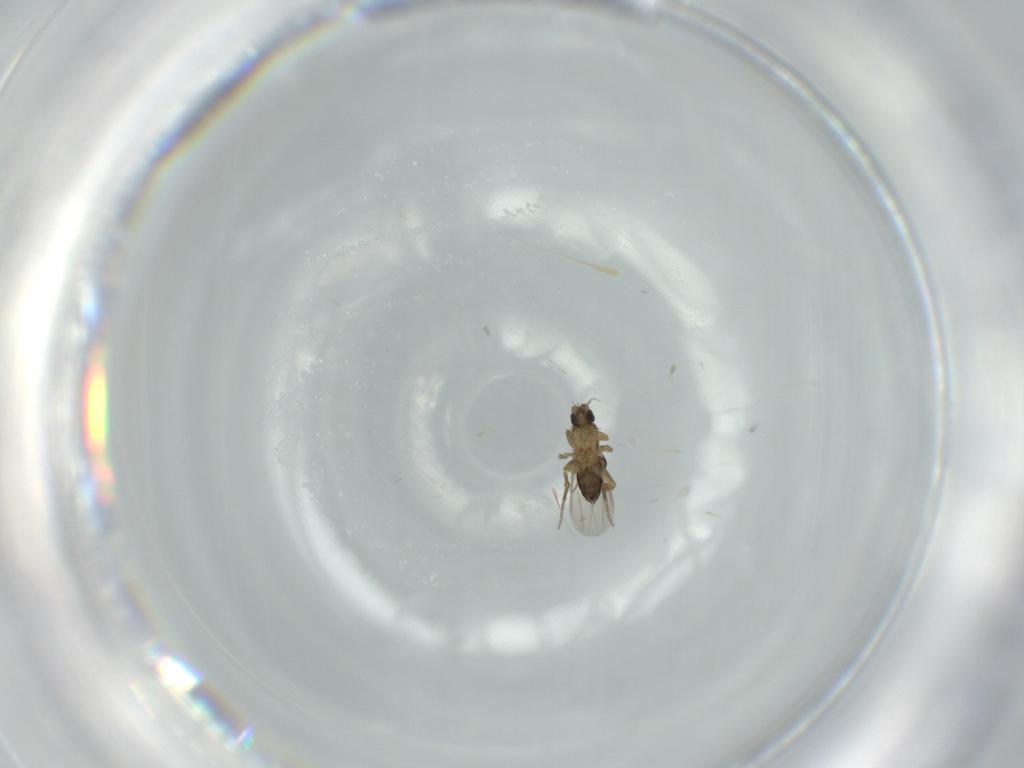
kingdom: Animalia
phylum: Arthropoda
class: Insecta
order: Diptera
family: Phoridae
